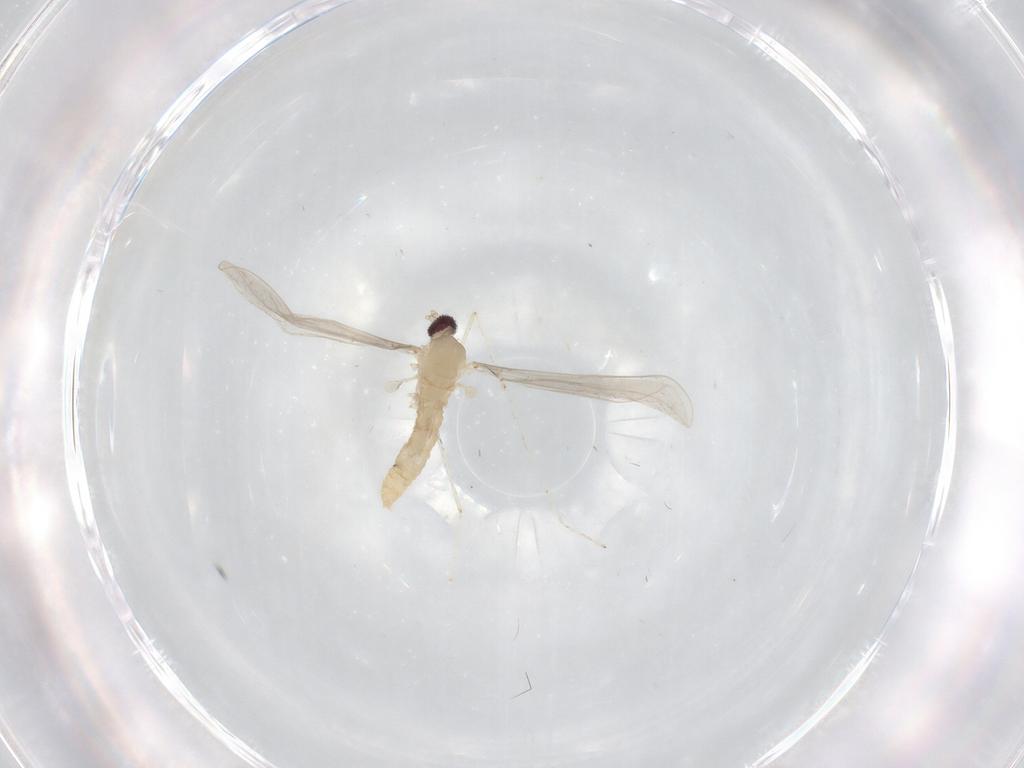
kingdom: Animalia
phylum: Arthropoda
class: Insecta
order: Diptera
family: Cecidomyiidae
